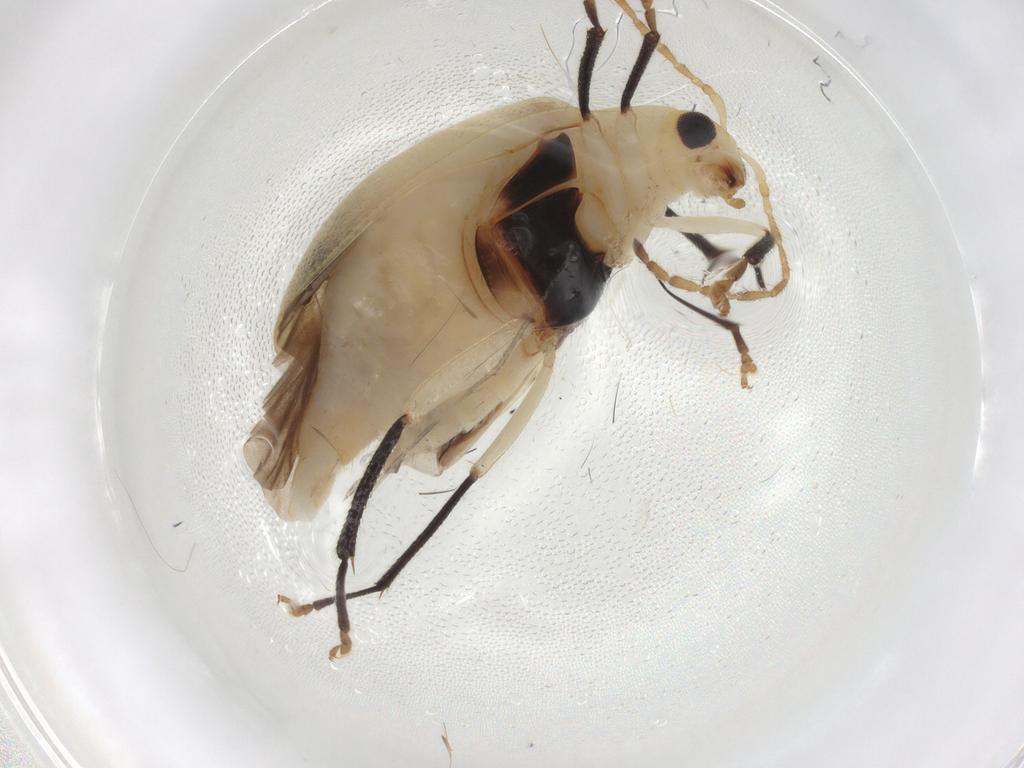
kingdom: Animalia
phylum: Arthropoda
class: Insecta
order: Coleoptera
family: Chrysomelidae
